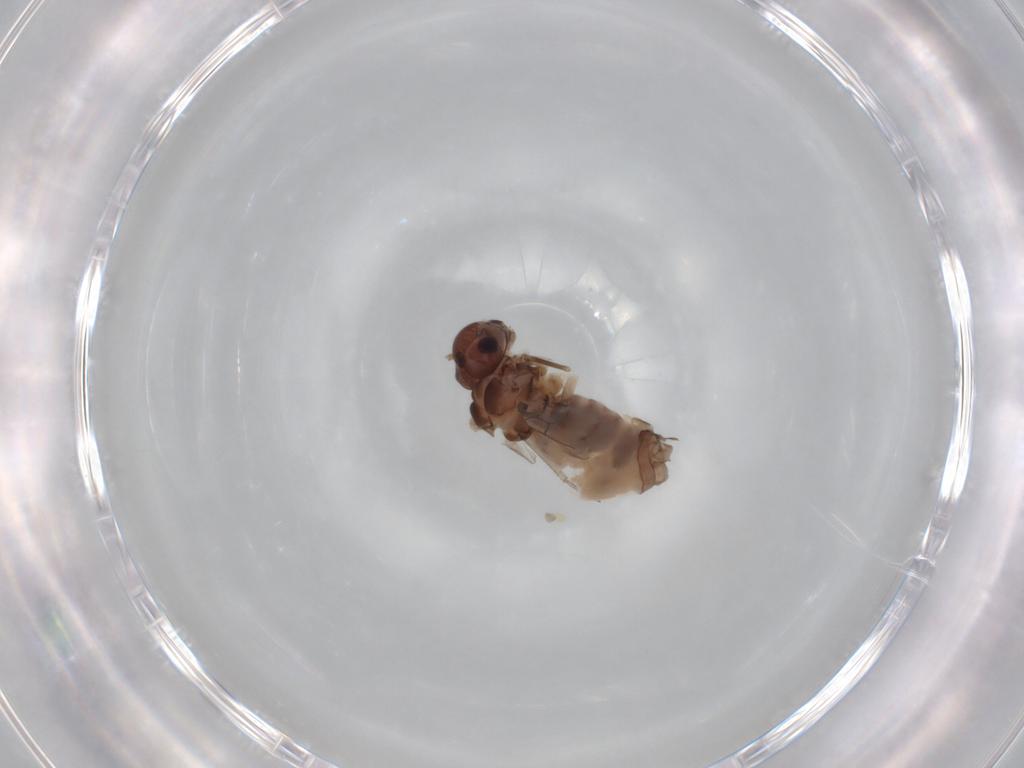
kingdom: Animalia
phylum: Arthropoda
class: Insecta
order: Psocodea
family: Peripsocidae
